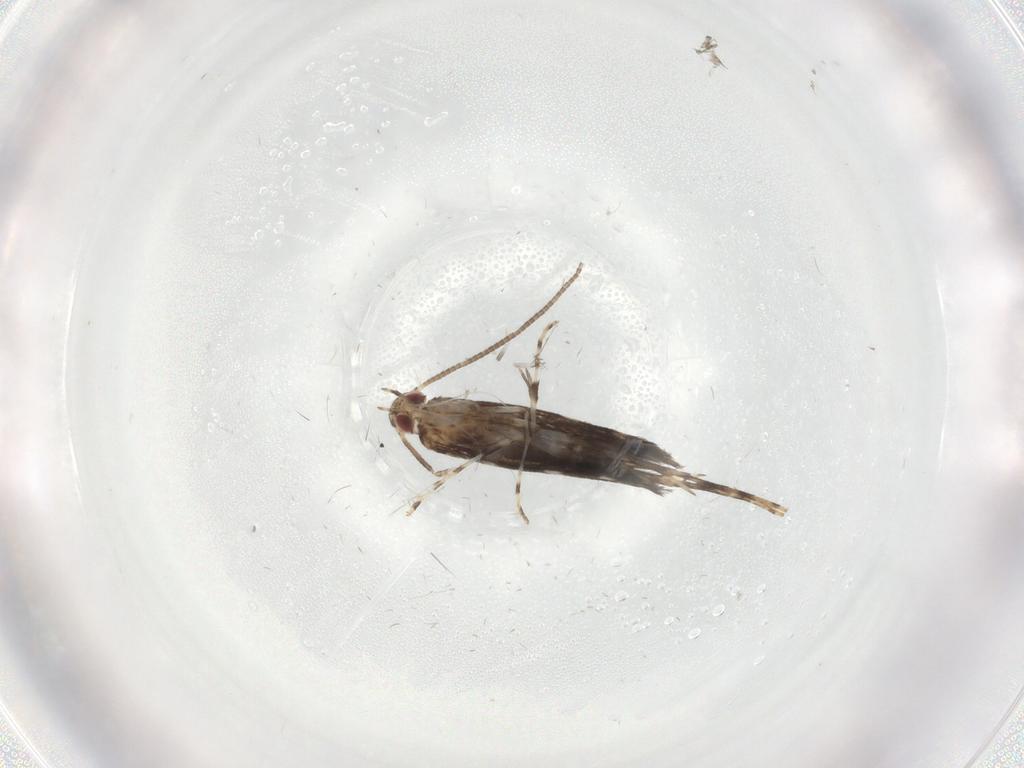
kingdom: Animalia
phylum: Arthropoda
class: Insecta
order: Lepidoptera
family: Gracillariidae
